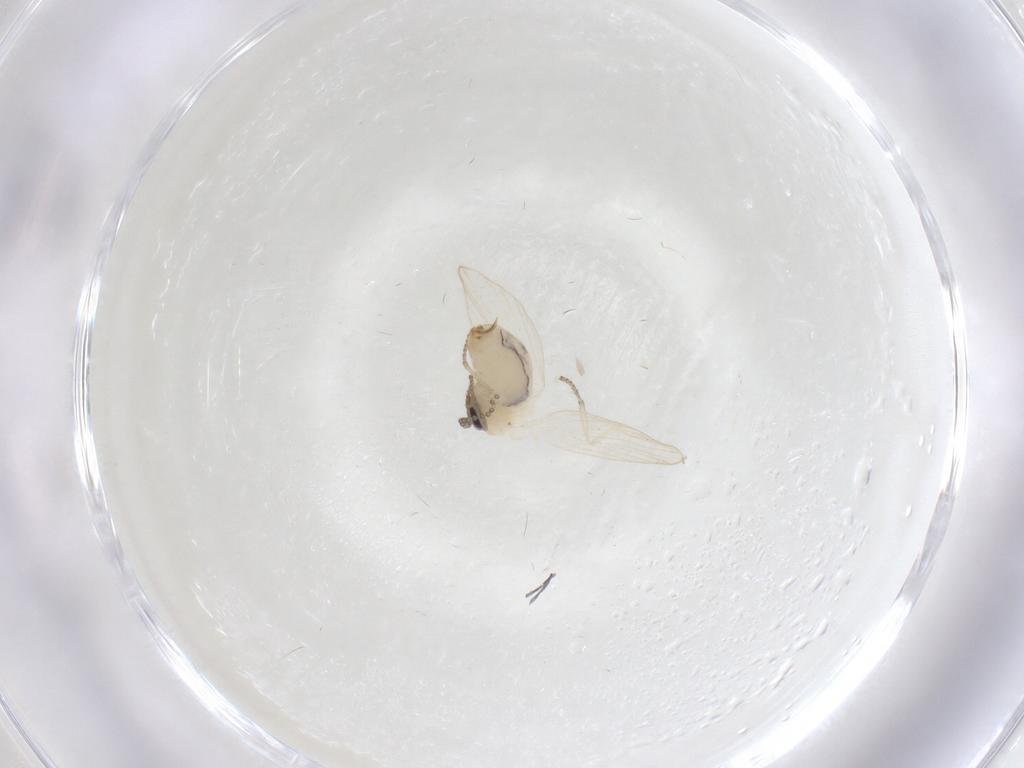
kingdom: Animalia
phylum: Arthropoda
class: Insecta
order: Diptera
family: Psychodidae
